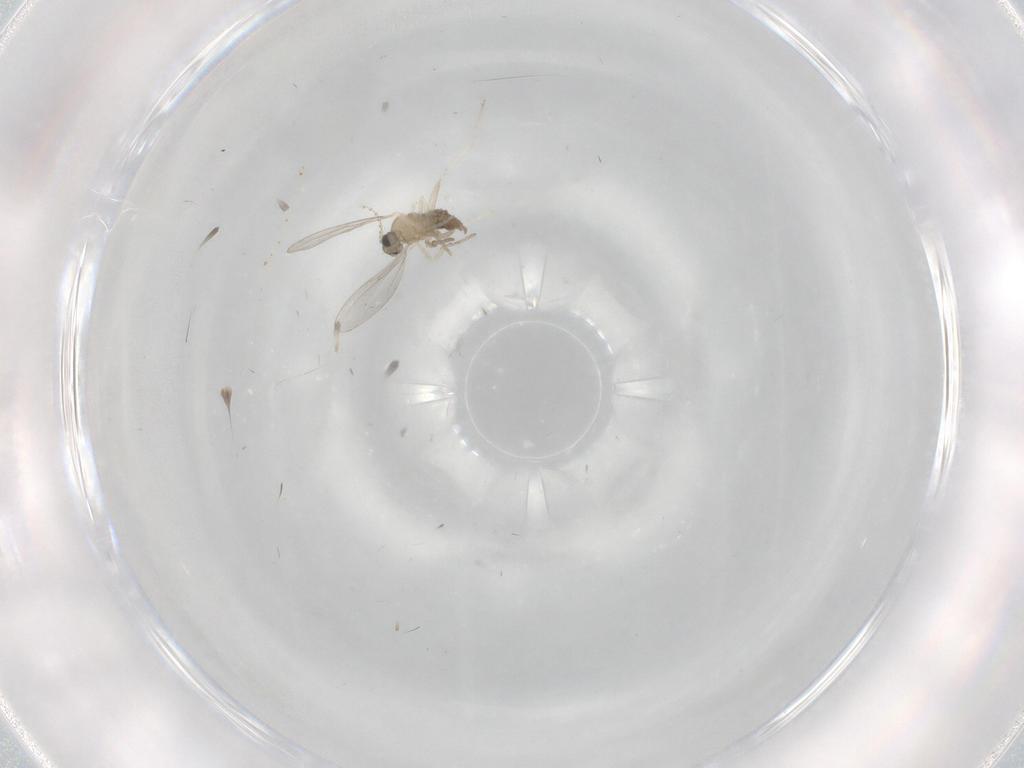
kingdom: Animalia
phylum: Arthropoda
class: Insecta
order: Diptera
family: Cecidomyiidae
